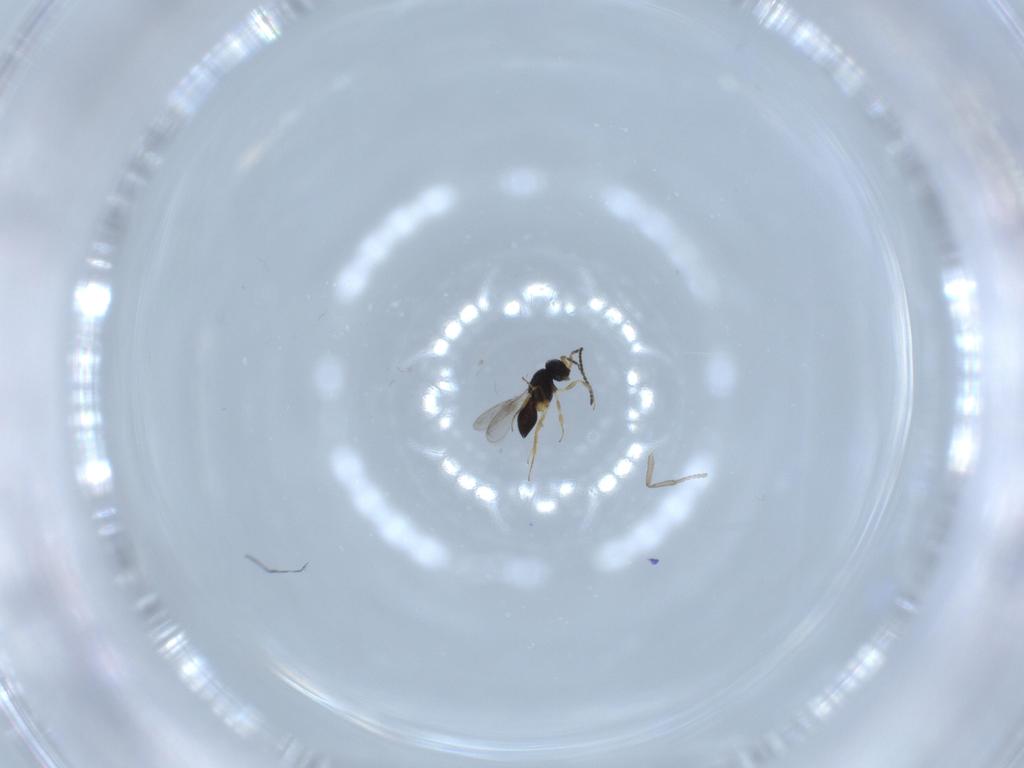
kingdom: Animalia
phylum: Arthropoda
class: Insecta
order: Hymenoptera
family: Scelionidae
